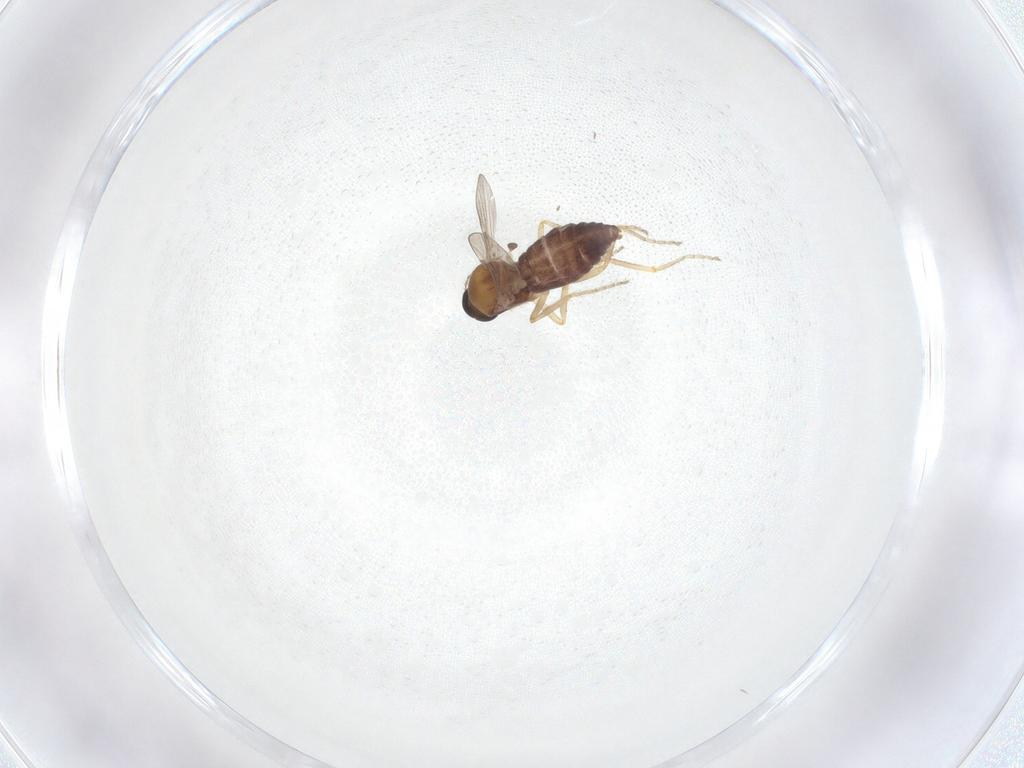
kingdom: Animalia
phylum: Arthropoda
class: Insecta
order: Diptera
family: Ceratopogonidae
